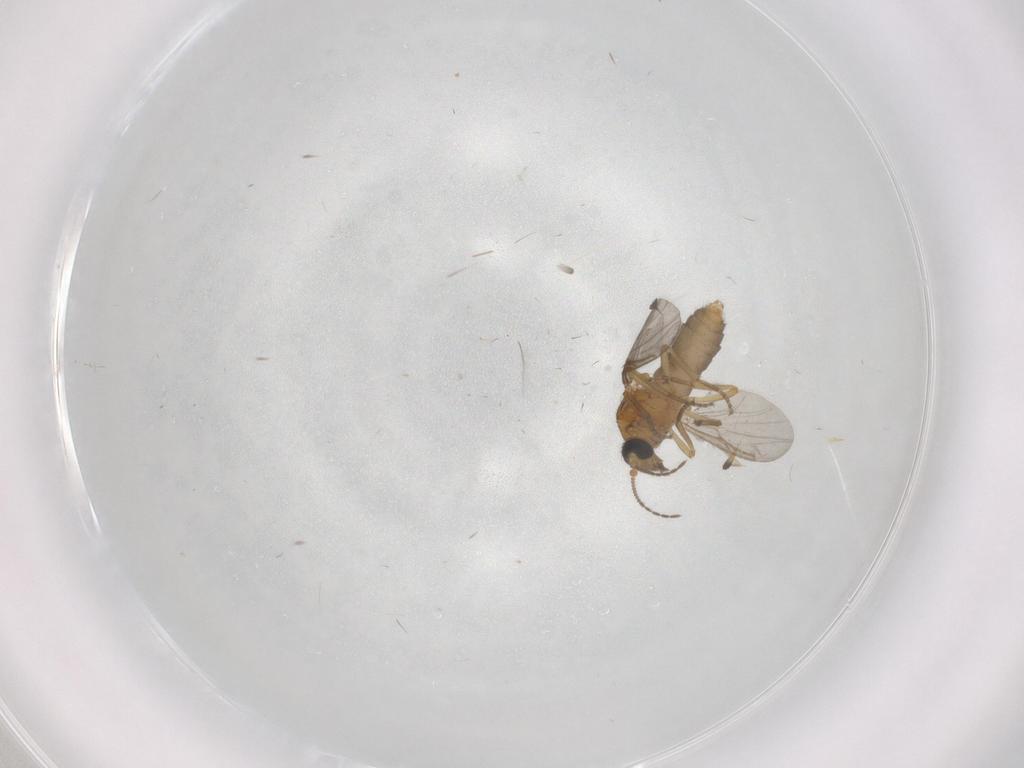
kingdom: Animalia
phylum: Arthropoda
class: Insecta
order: Diptera
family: Ceratopogonidae
